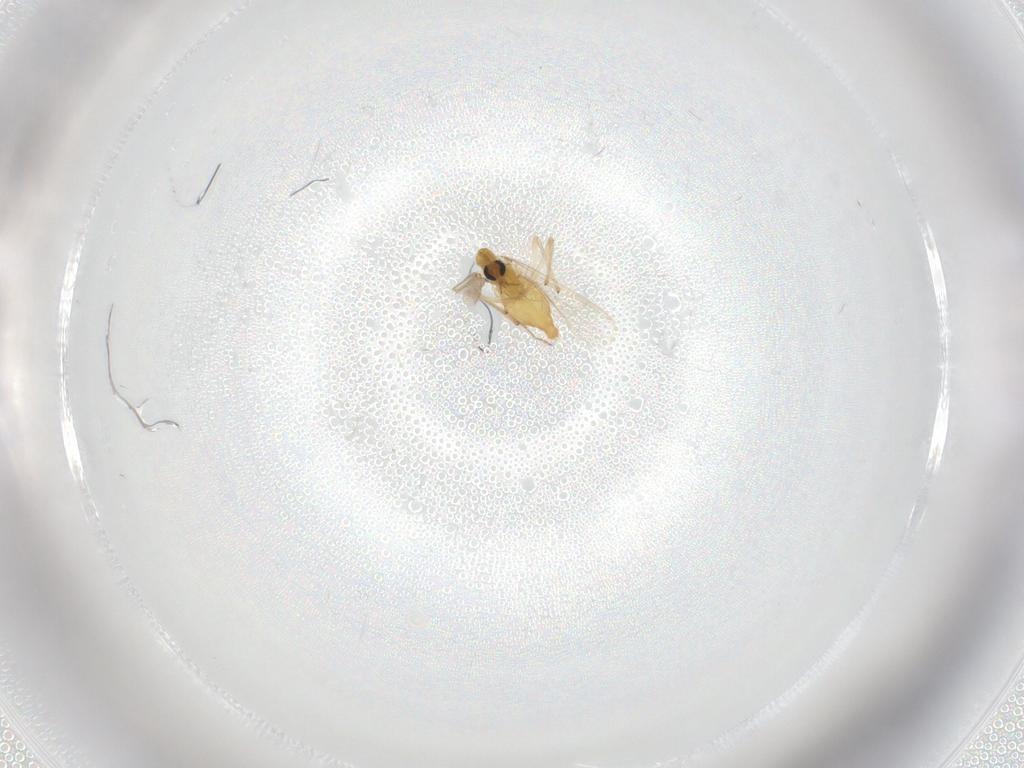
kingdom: Animalia
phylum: Arthropoda
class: Insecta
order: Diptera
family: Chironomidae
